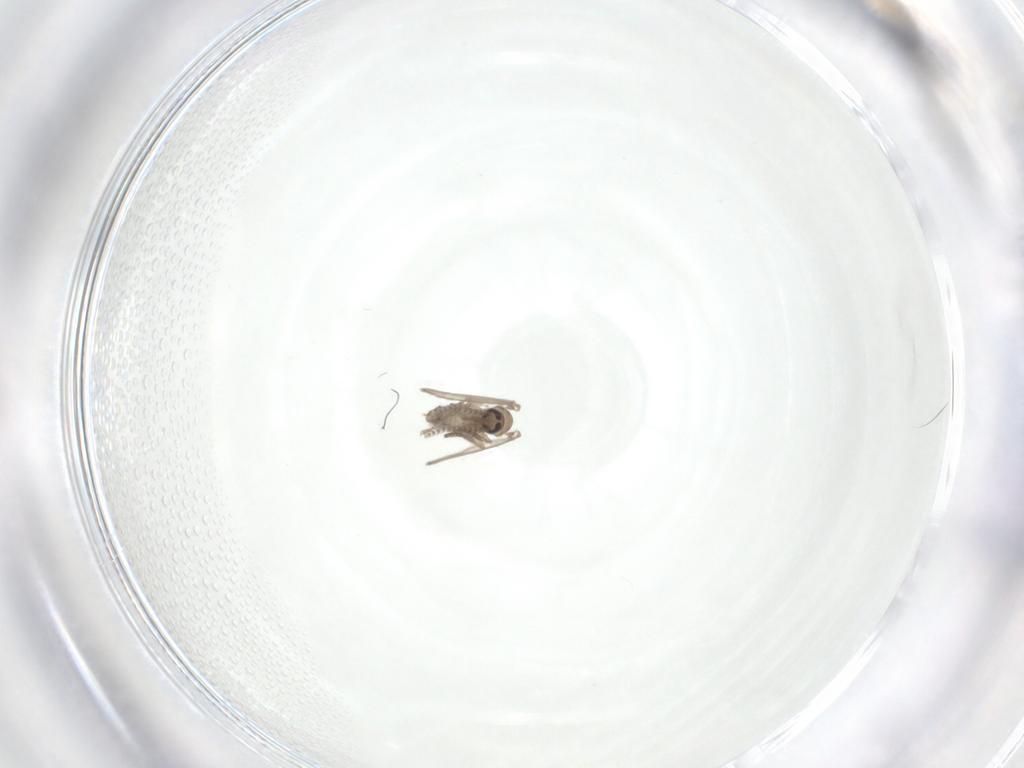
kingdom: Animalia
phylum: Arthropoda
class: Insecta
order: Diptera
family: Psychodidae
